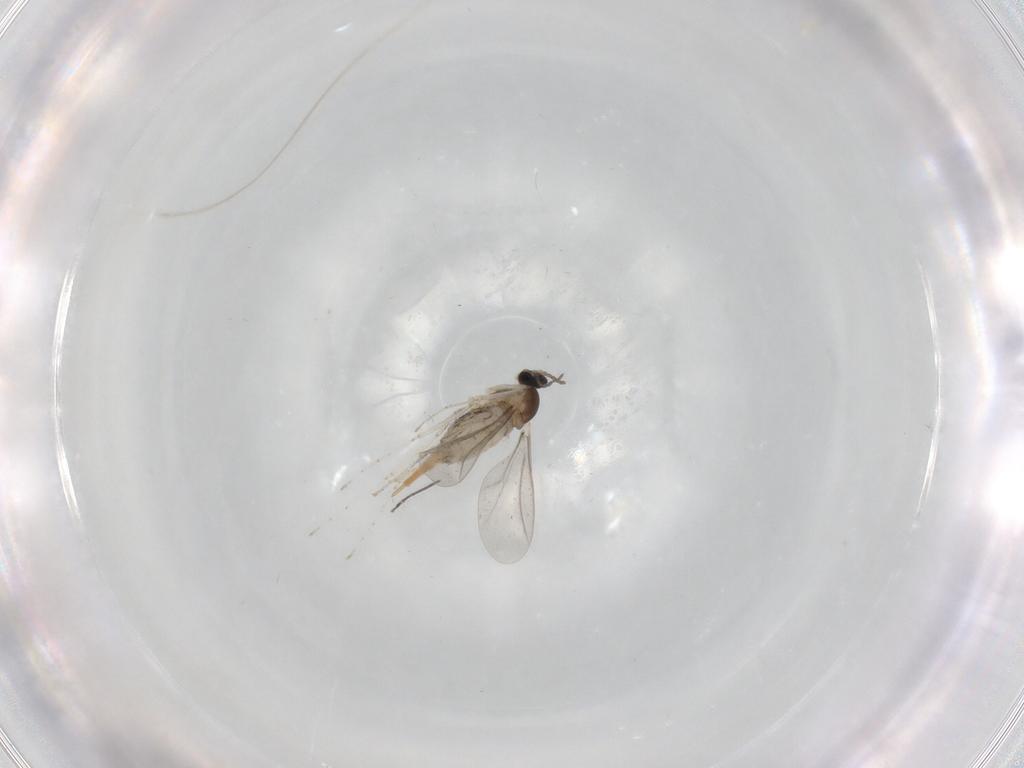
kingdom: Animalia
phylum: Arthropoda
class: Insecta
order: Diptera
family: Cecidomyiidae
